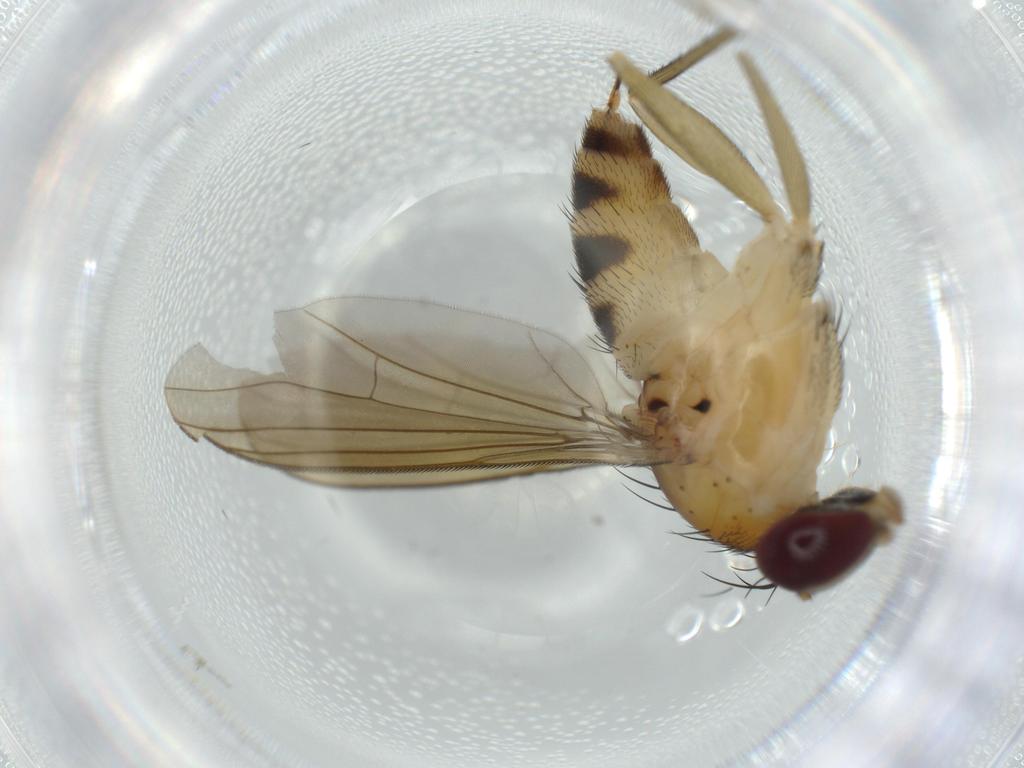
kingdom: Animalia
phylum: Arthropoda
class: Insecta
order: Diptera
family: Dolichopodidae
